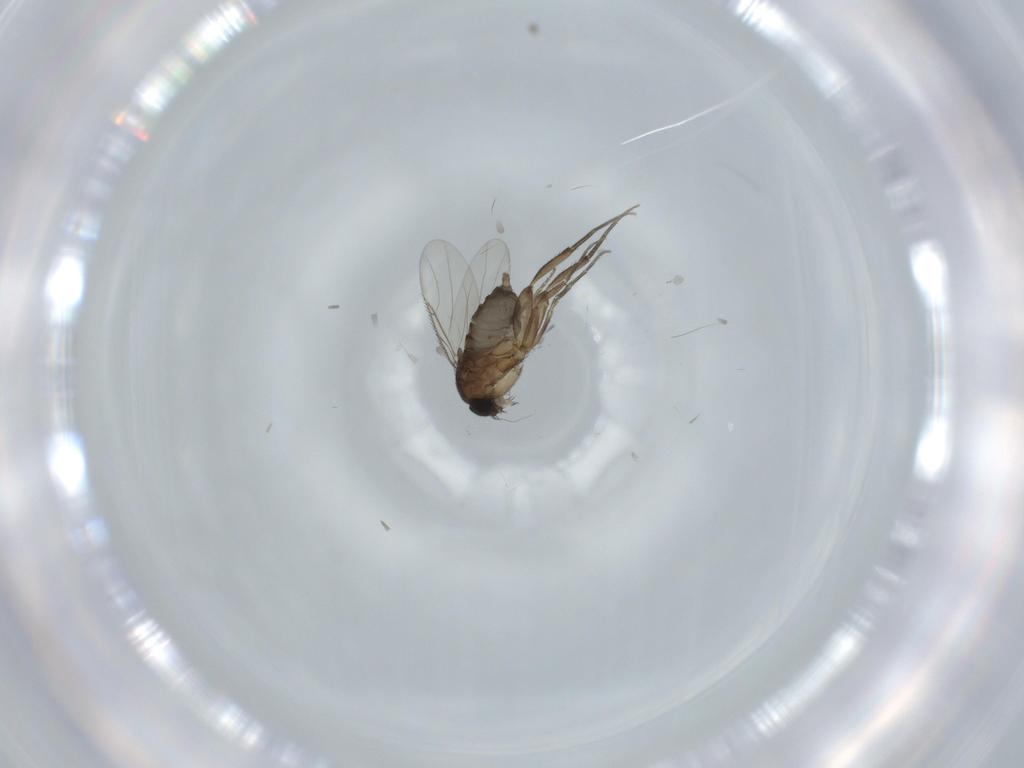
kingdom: Animalia
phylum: Arthropoda
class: Insecta
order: Diptera
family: Phoridae
